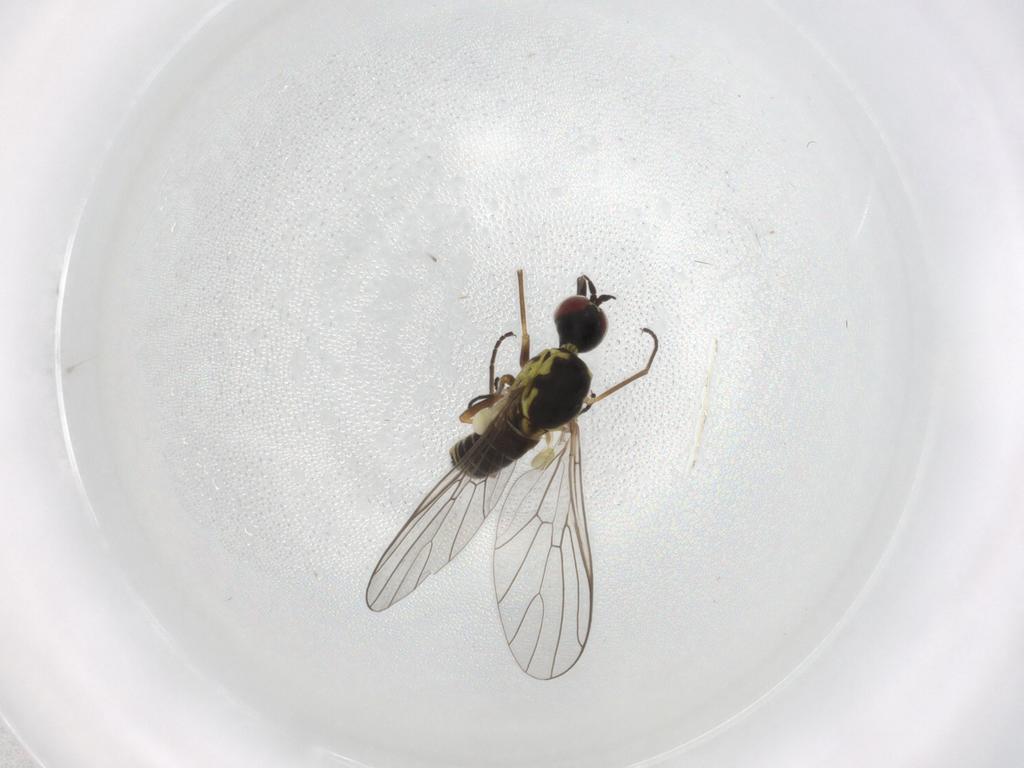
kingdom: Animalia
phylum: Arthropoda
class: Insecta
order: Diptera
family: Bombyliidae
